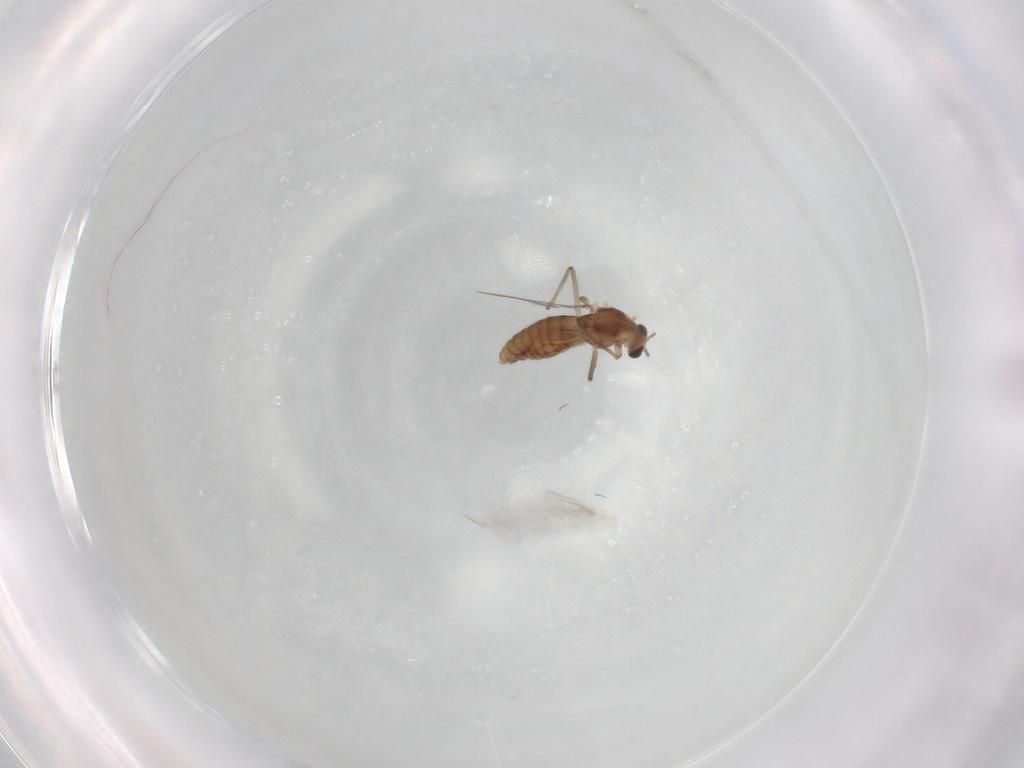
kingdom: Animalia
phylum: Arthropoda
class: Insecta
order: Diptera
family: Chironomidae
